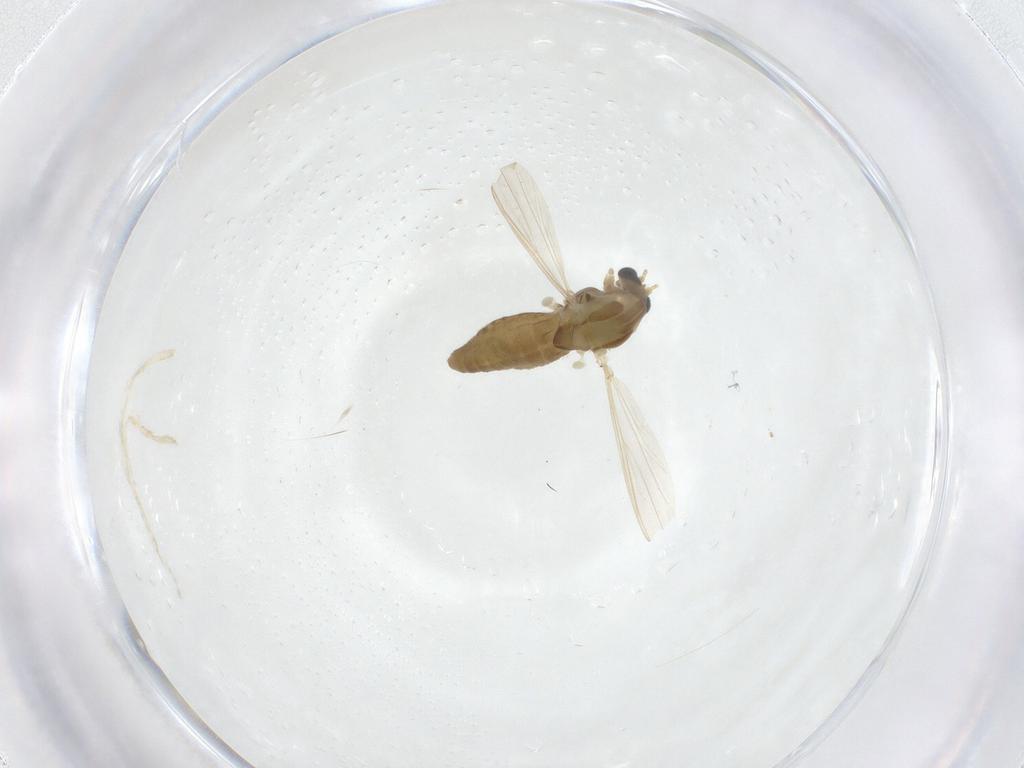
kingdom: Animalia
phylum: Arthropoda
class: Insecta
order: Diptera
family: Chironomidae
